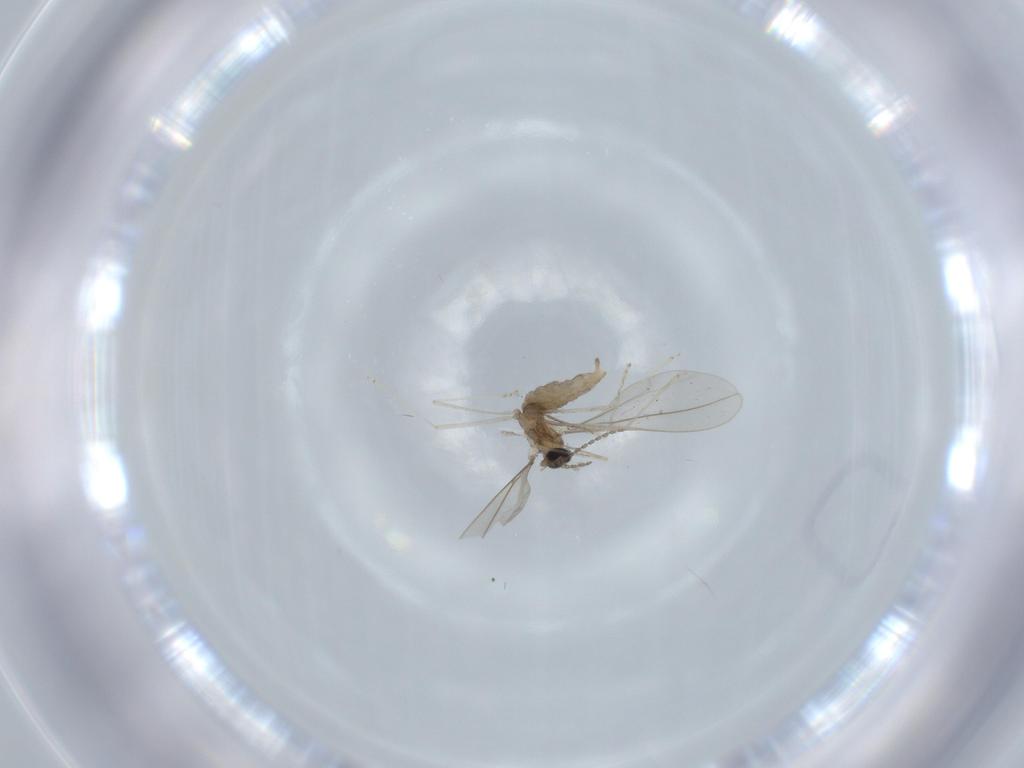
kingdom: Animalia
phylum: Arthropoda
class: Insecta
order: Diptera
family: Cecidomyiidae
